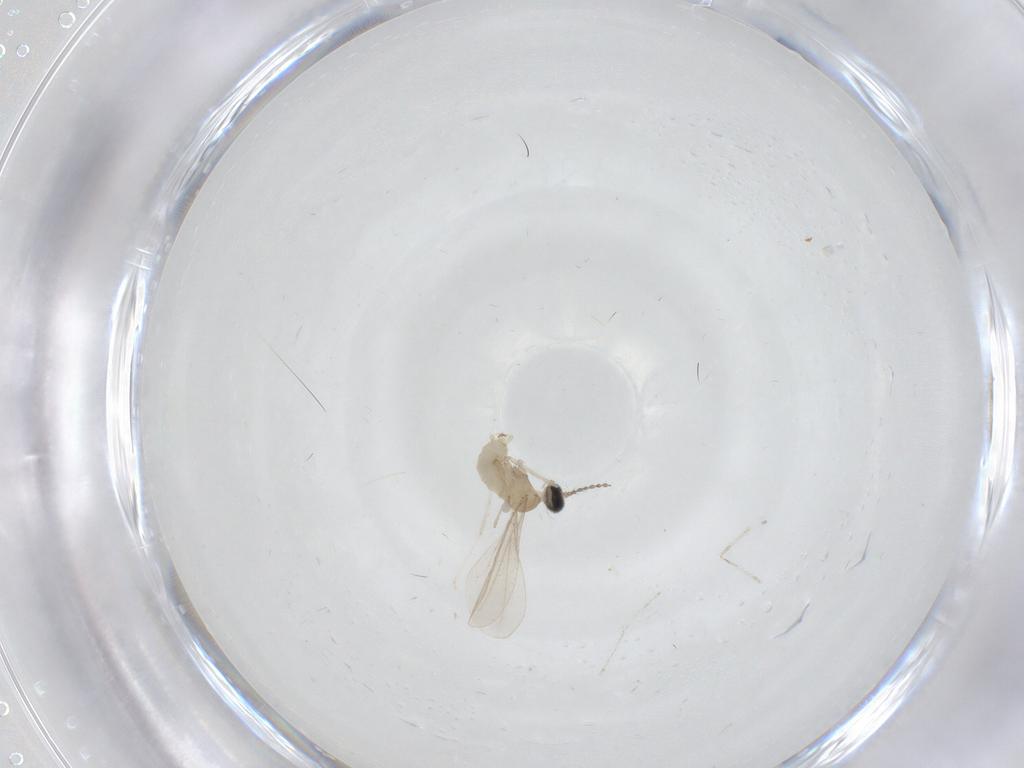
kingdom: Animalia
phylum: Arthropoda
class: Insecta
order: Diptera
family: Cecidomyiidae
